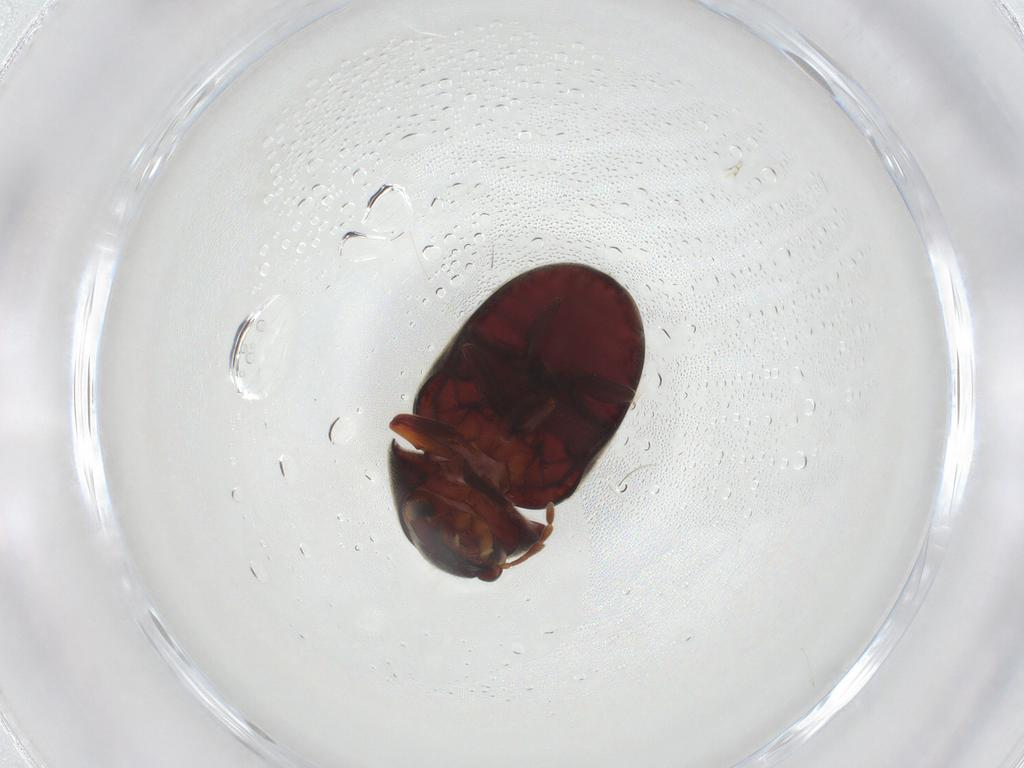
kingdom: Animalia
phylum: Arthropoda
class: Insecta
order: Coleoptera
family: Ptinidae
